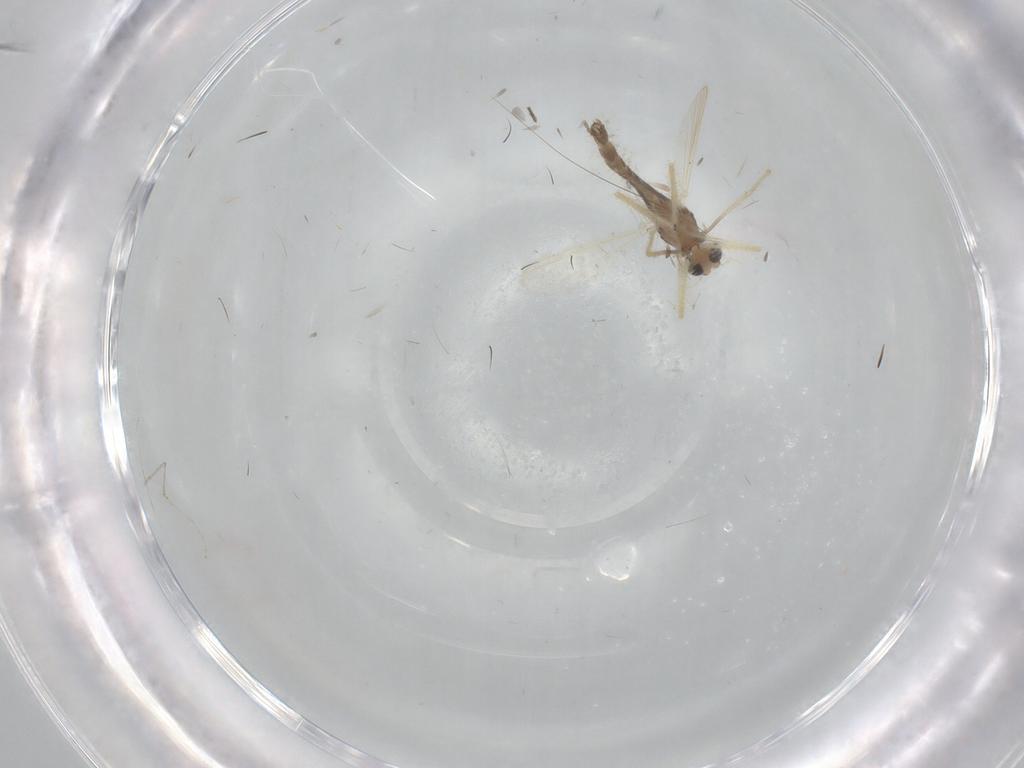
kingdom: Animalia
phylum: Arthropoda
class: Insecta
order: Diptera
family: Chironomidae
